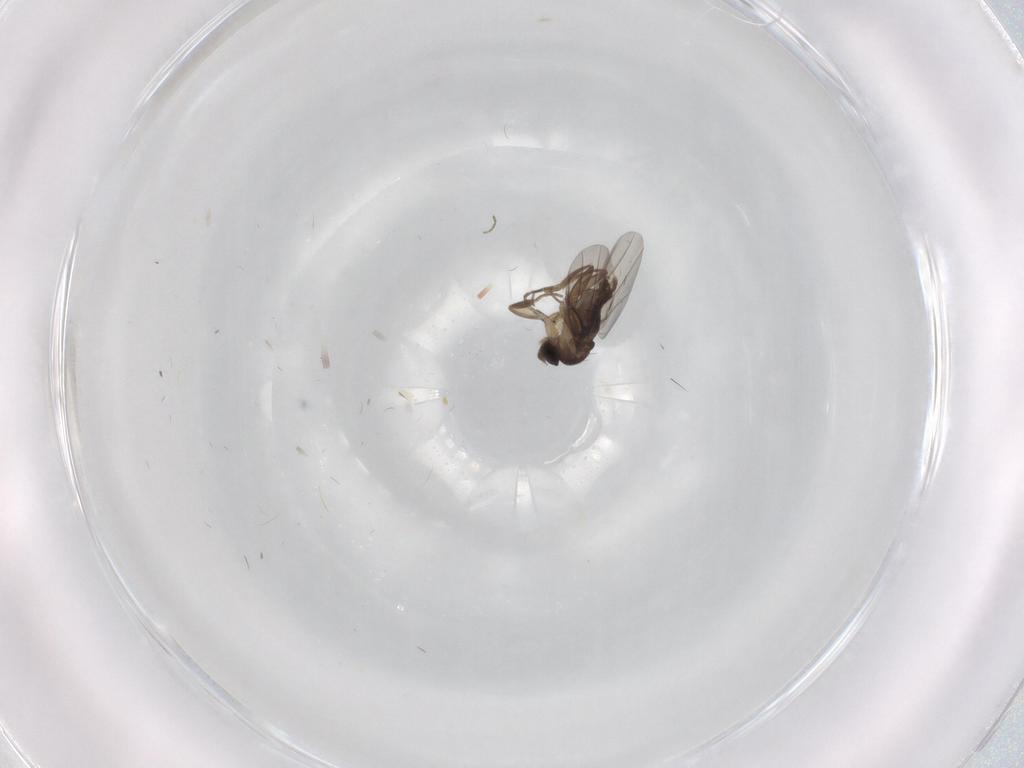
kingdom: Animalia
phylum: Arthropoda
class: Insecta
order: Diptera
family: Phoridae
